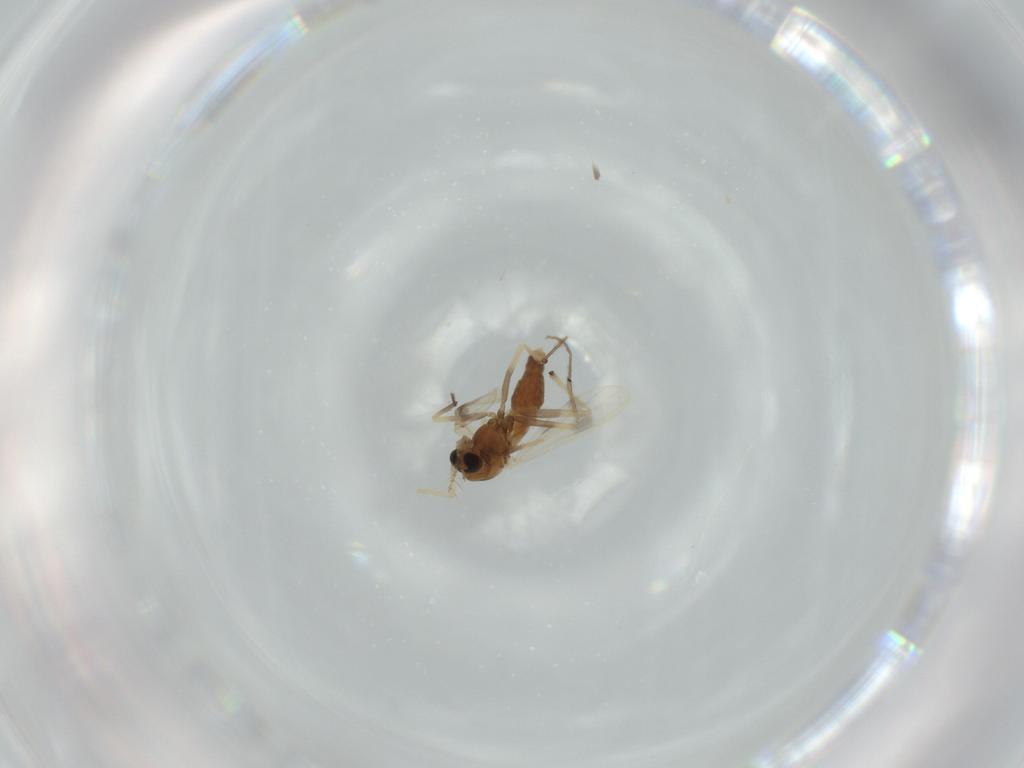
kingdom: Animalia
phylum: Arthropoda
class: Insecta
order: Diptera
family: Chironomidae
